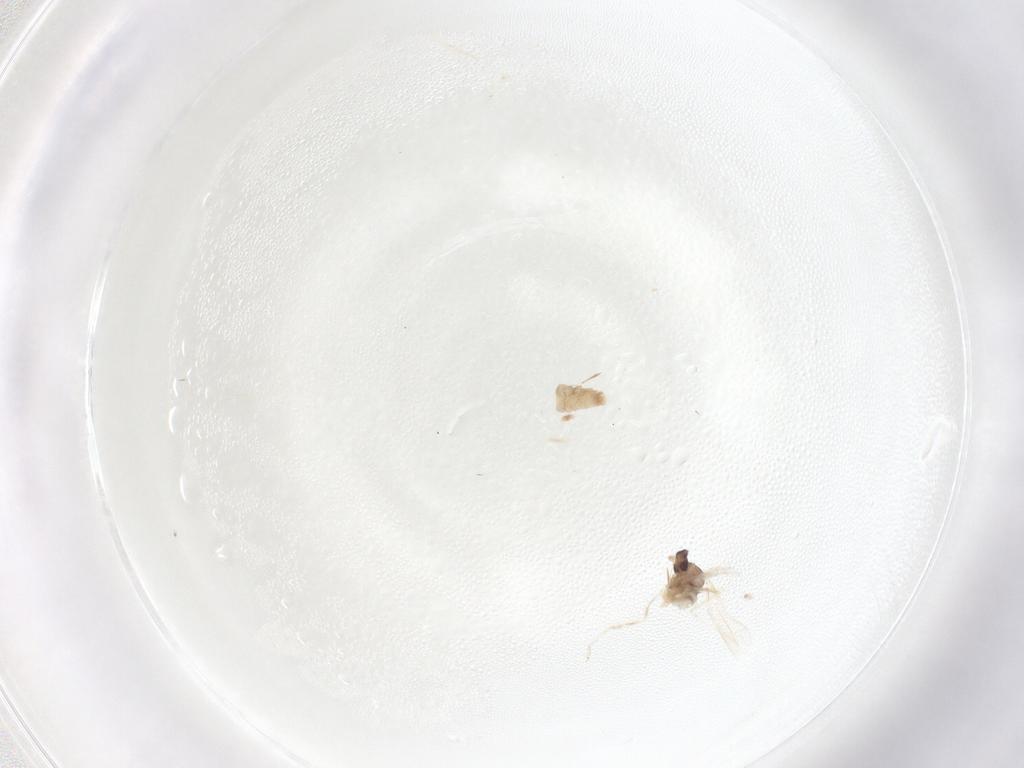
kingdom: Animalia
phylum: Arthropoda
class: Insecta
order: Diptera
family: Cecidomyiidae
